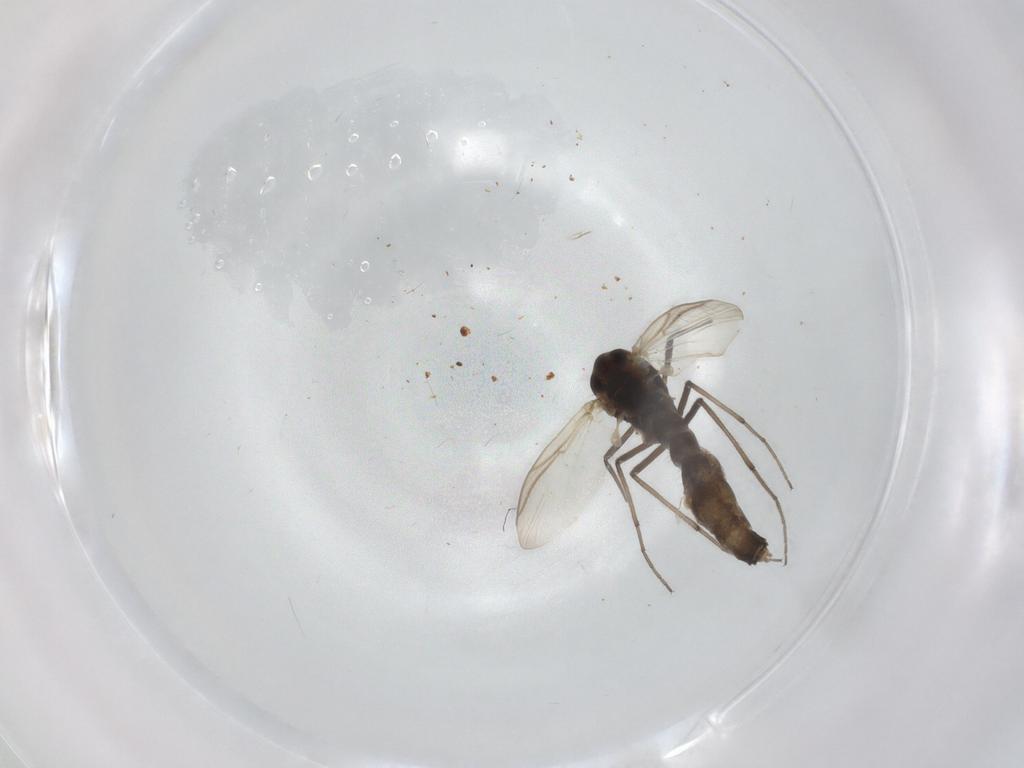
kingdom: Animalia
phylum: Arthropoda
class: Insecta
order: Diptera
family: Chironomidae
